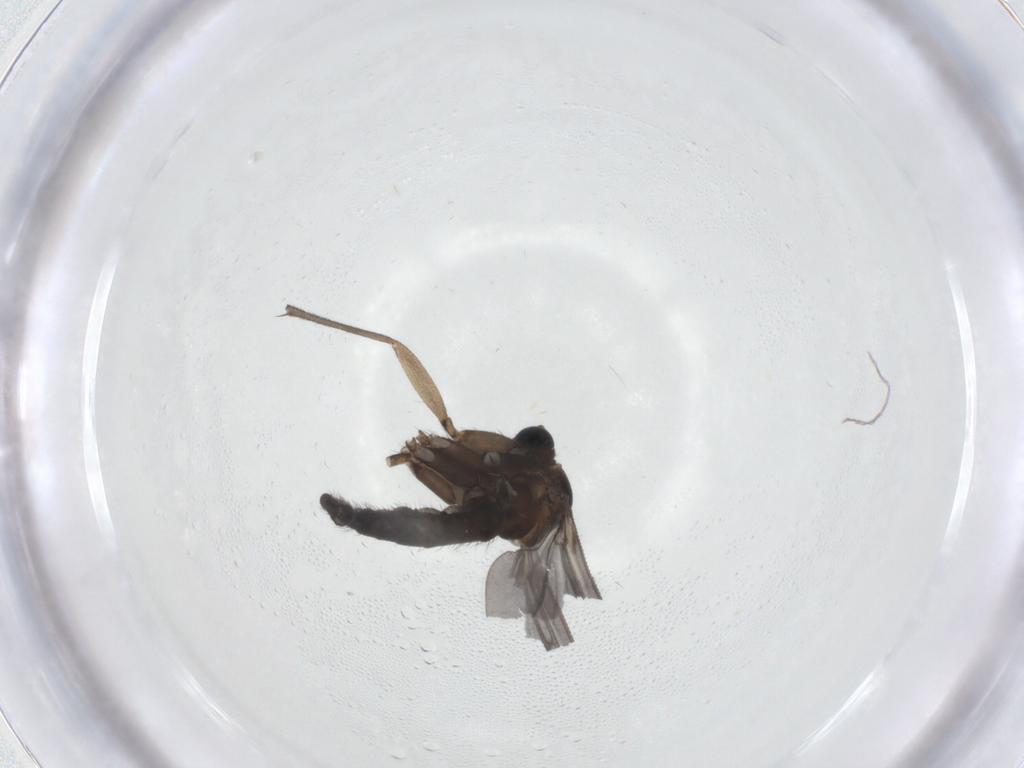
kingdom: Animalia
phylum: Arthropoda
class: Insecta
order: Diptera
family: Sciaridae
